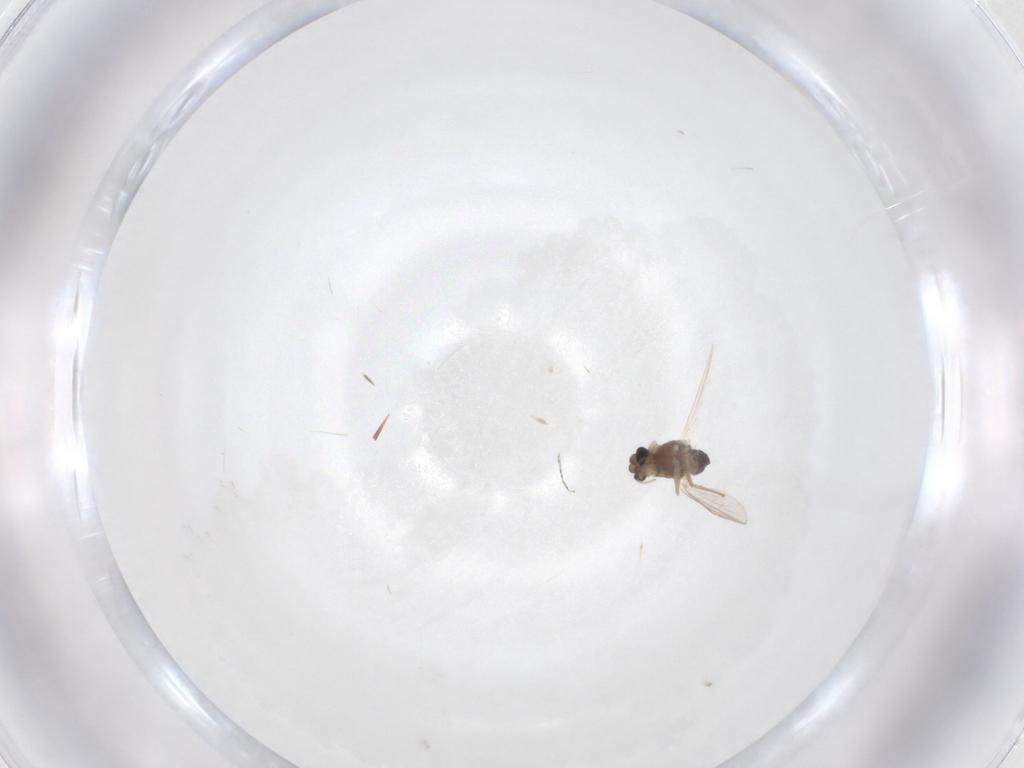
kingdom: Animalia
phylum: Arthropoda
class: Insecta
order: Diptera
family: Chironomidae
